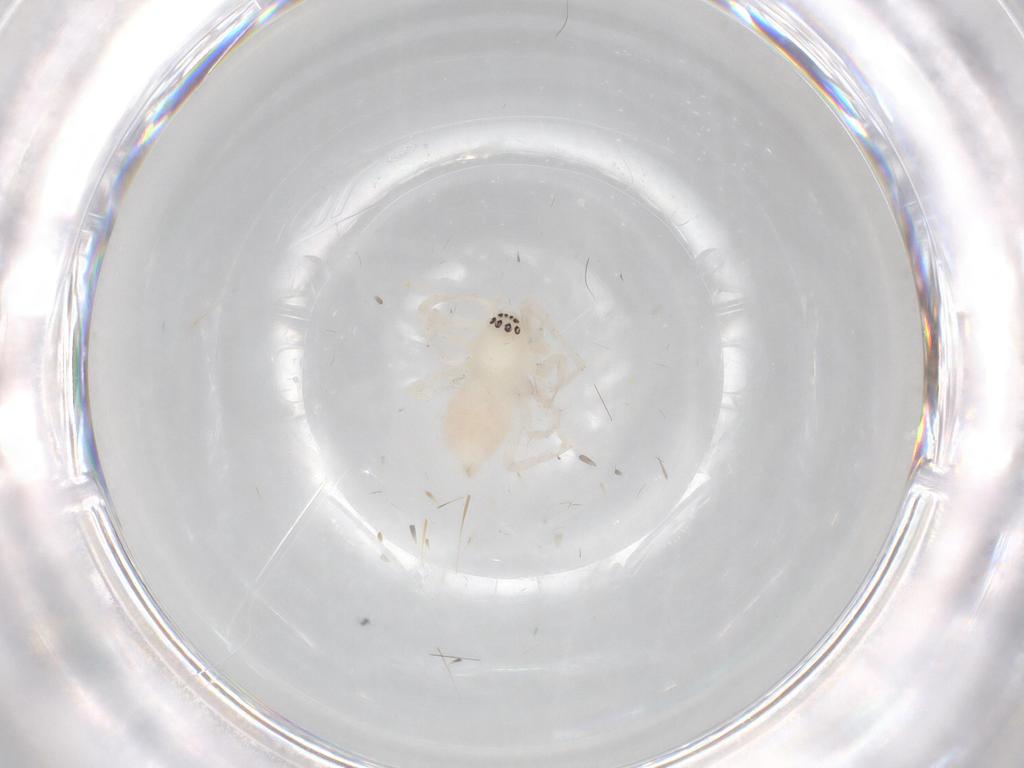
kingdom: Animalia
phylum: Arthropoda
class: Arachnida
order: Araneae
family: Anyphaenidae
